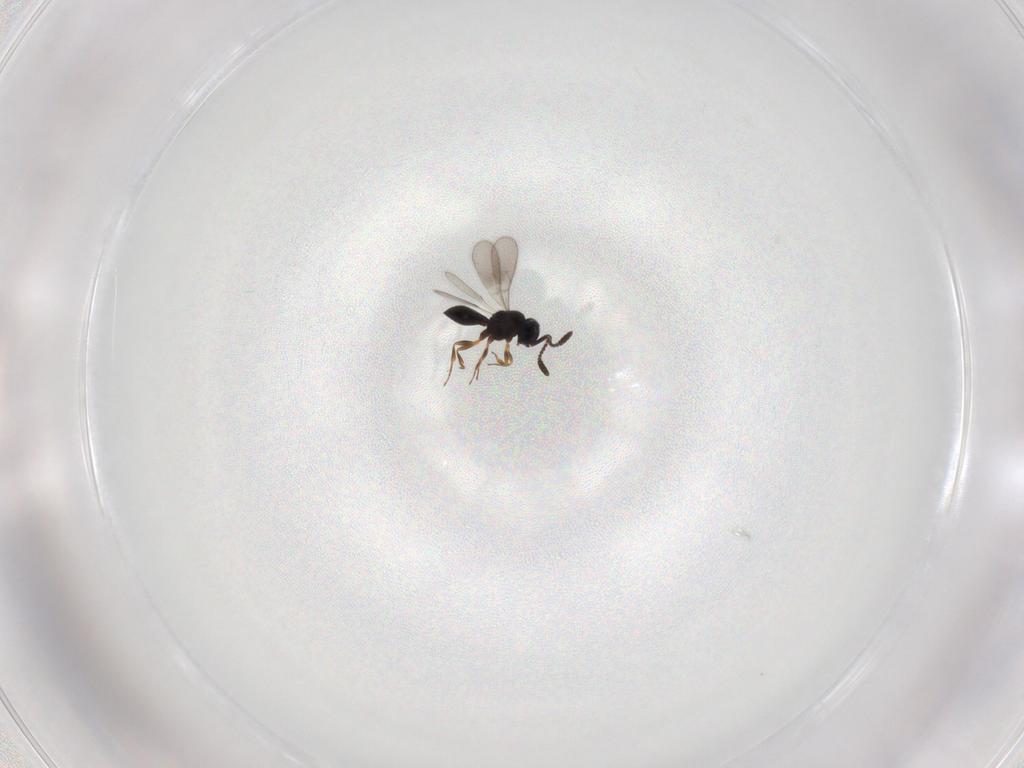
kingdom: Animalia
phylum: Arthropoda
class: Insecta
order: Hymenoptera
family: Scelionidae
